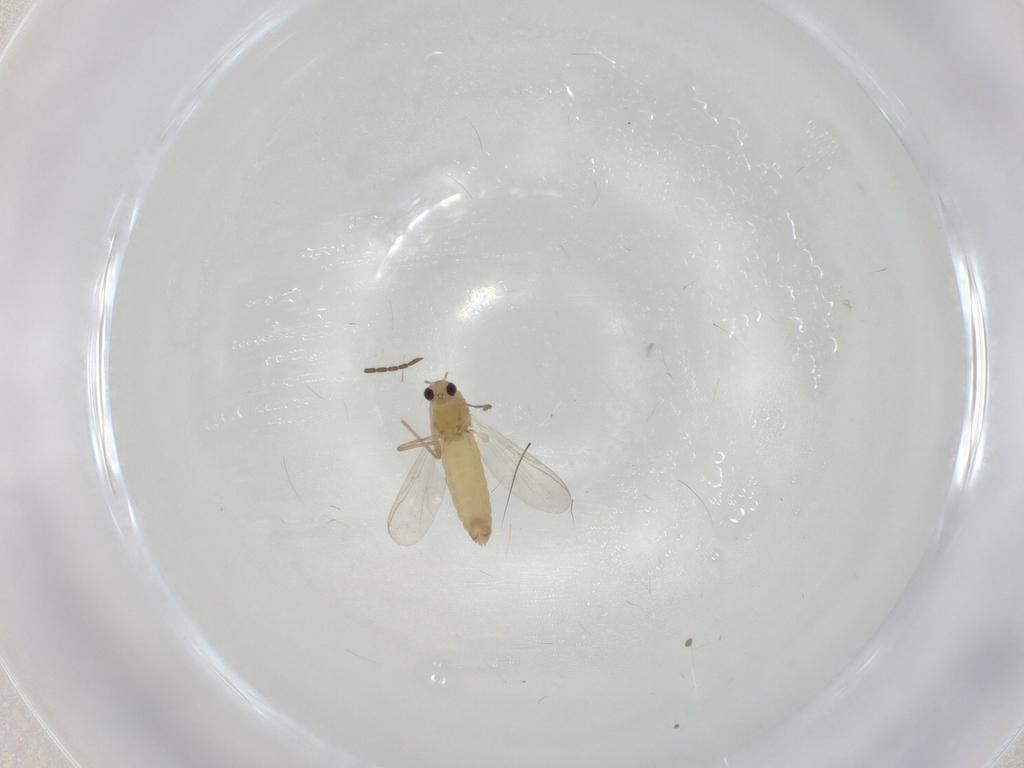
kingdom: Animalia
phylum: Arthropoda
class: Insecta
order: Diptera
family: Chironomidae
